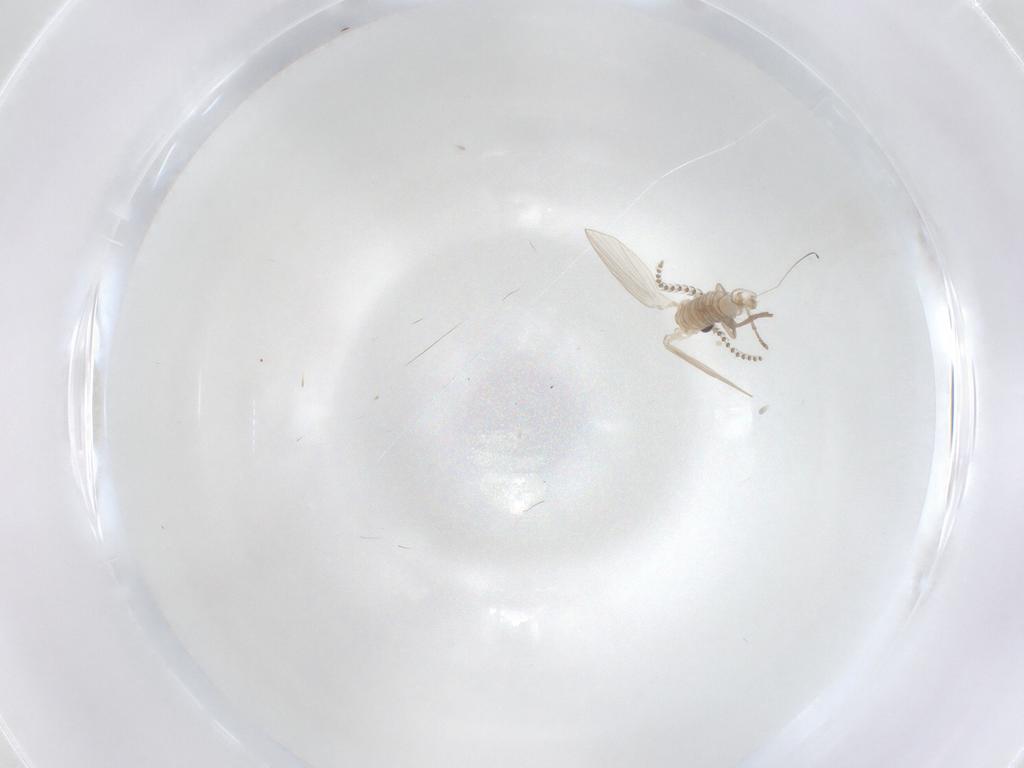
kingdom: Animalia
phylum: Arthropoda
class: Insecta
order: Diptera
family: Psychodidae
